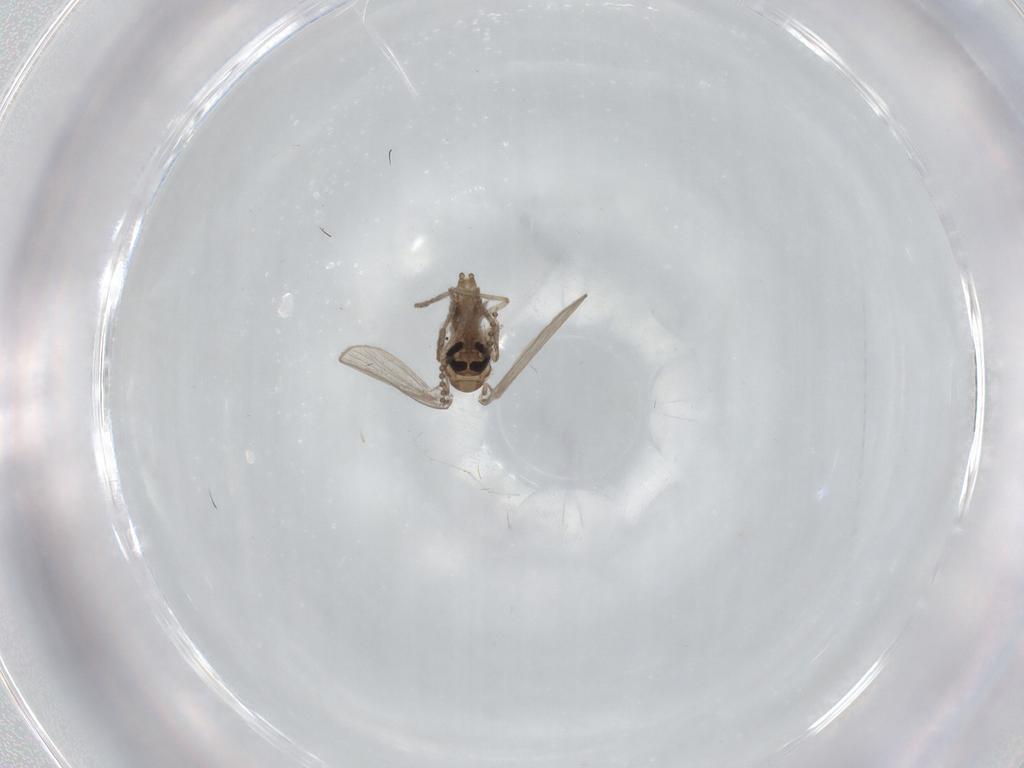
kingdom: Animalia
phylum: Arthropoda
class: Insecta
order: Diptera
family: Psychodidae
